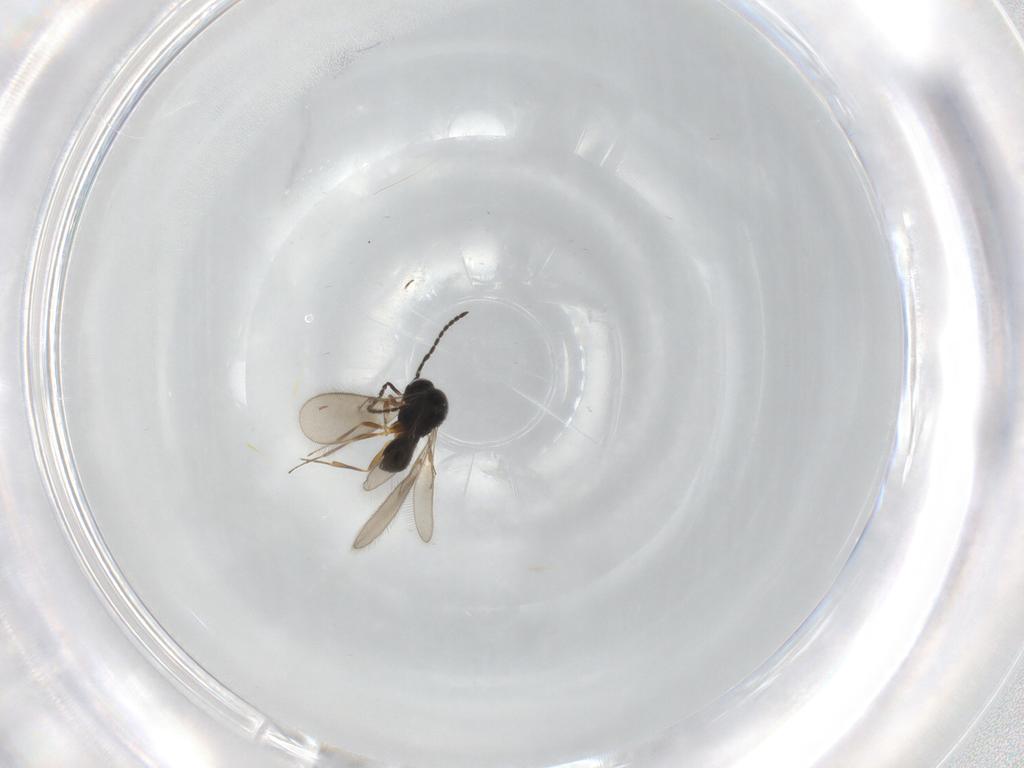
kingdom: Animalia
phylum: Arthropoda
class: Insecta
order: Hymenoptera
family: Scelionidae
